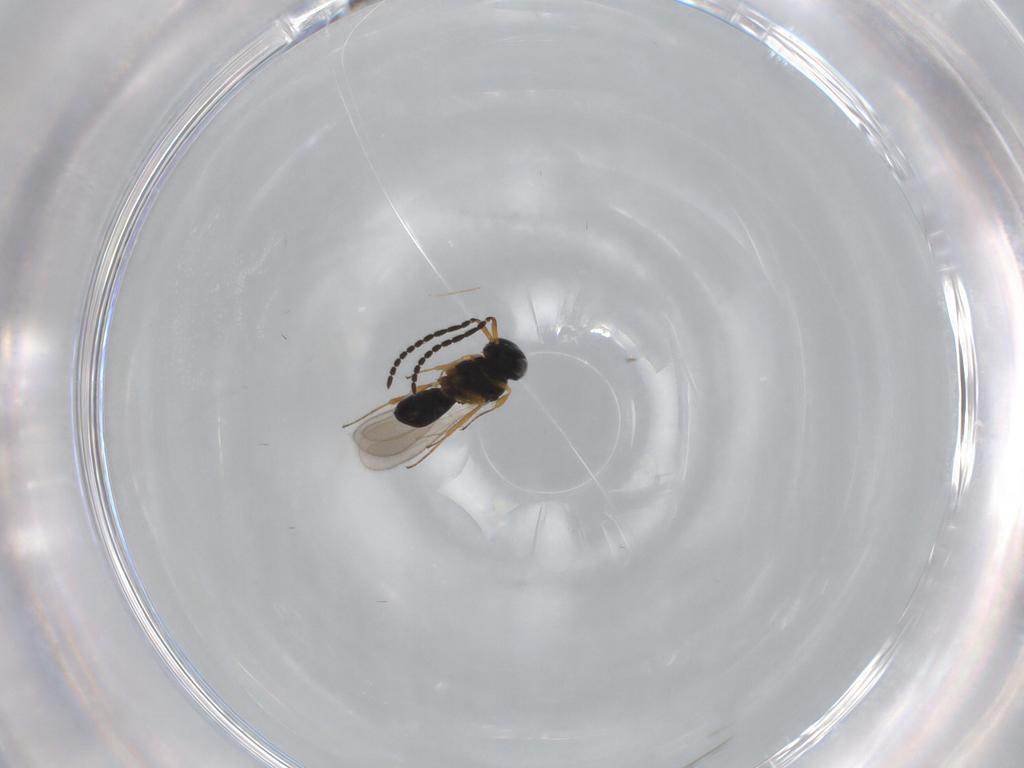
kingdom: Animalia
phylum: Arthropoda
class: Insecta
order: Hymenoptera
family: Scelionidae
